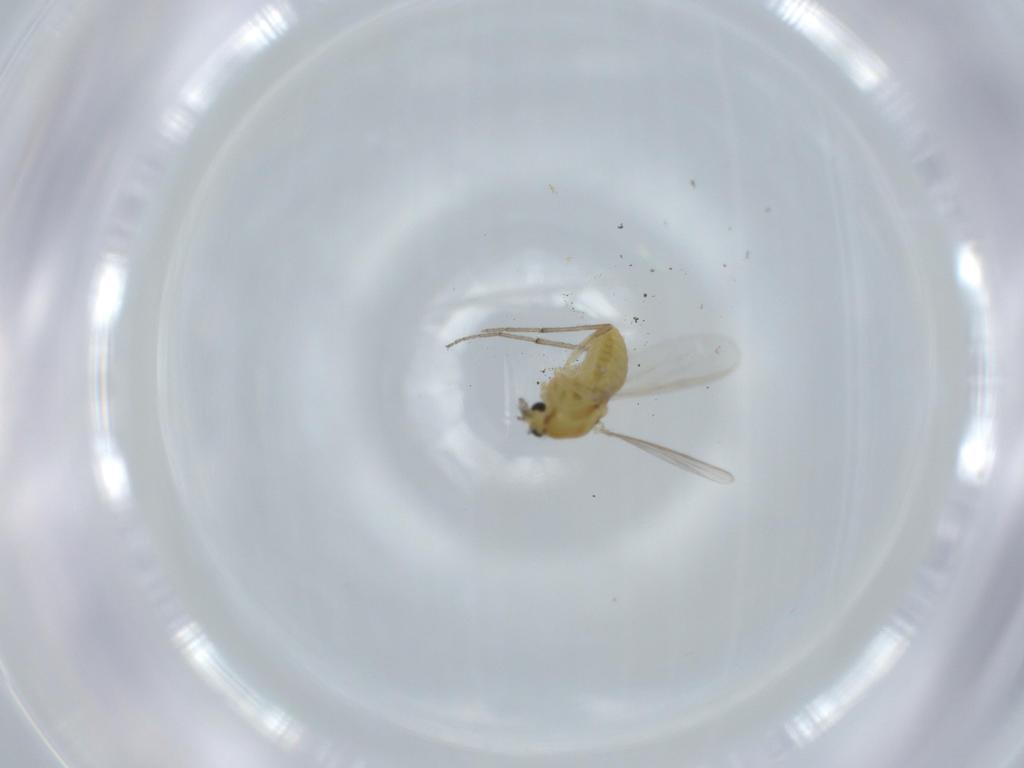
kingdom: Animalia
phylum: Arthropoda
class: Insecta
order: Diptera
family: Chironomidae
